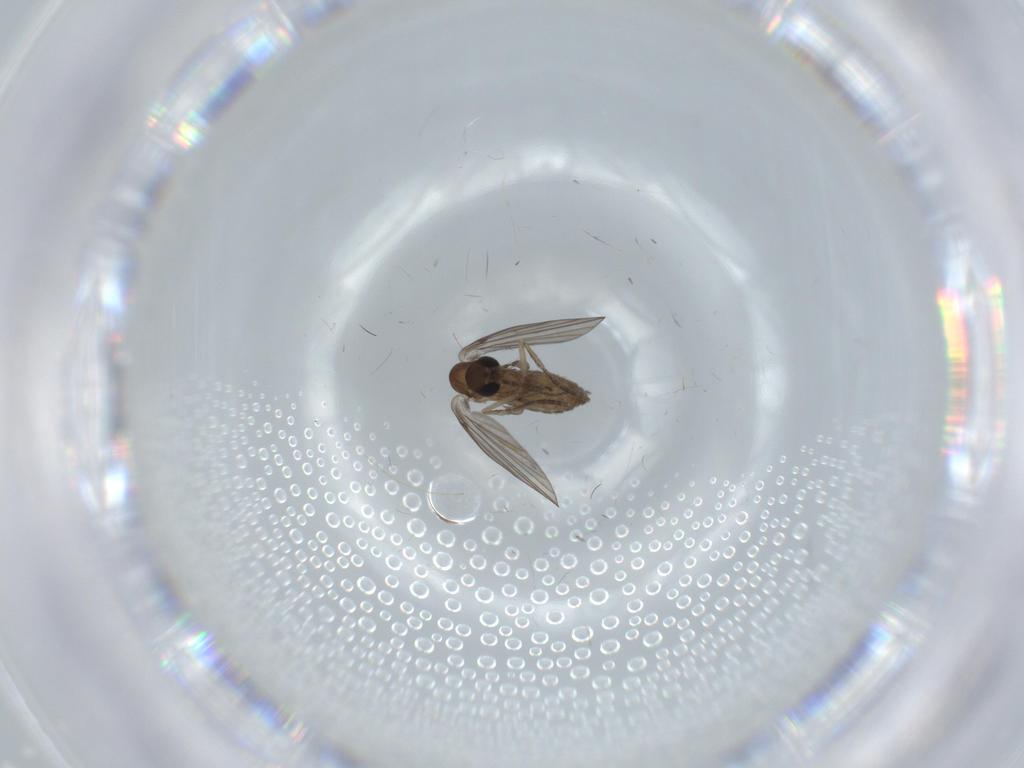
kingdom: Animalia
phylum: Arthropoda
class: Insecta
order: Diptera
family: Psychodidae
